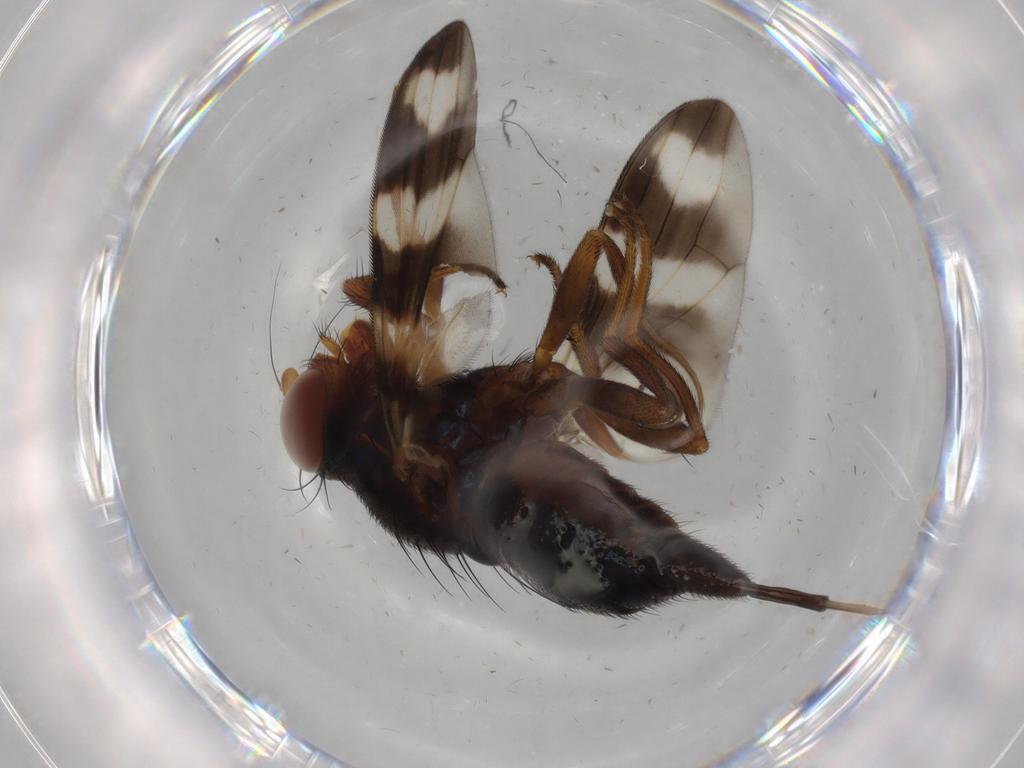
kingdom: Animalia
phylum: Arthropoda
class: Insecta
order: Diptera
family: Ulidiidae
